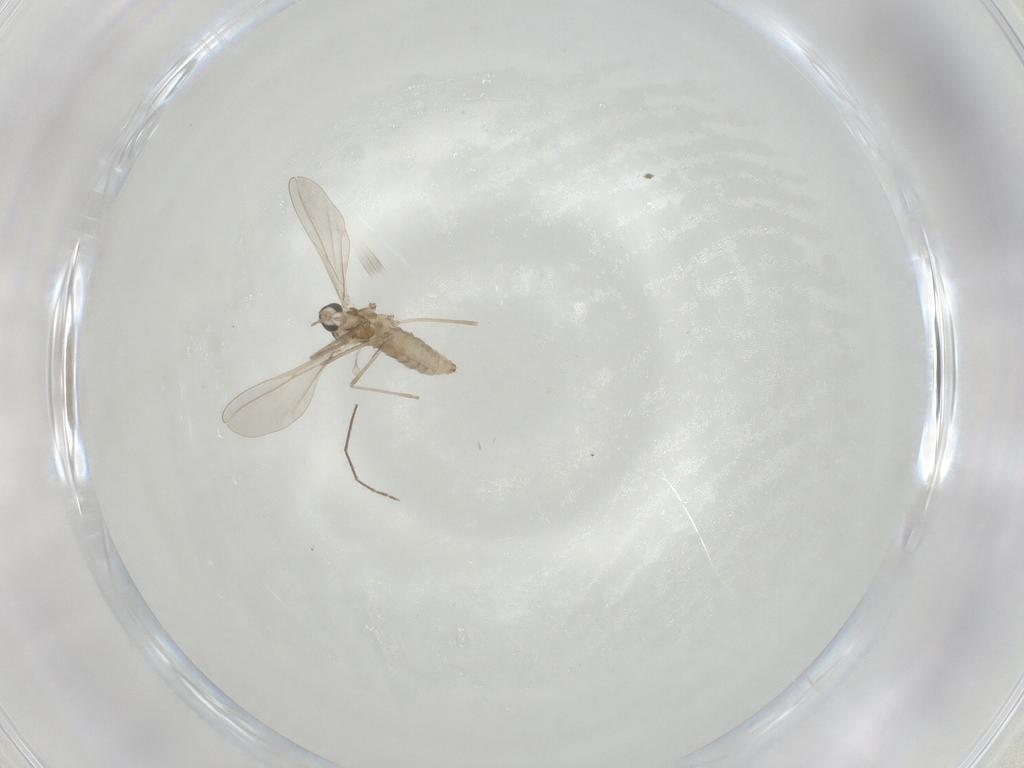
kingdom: Animalia
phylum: Arthropoda
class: Insecta
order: Diptera
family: Cecidomyiidae
